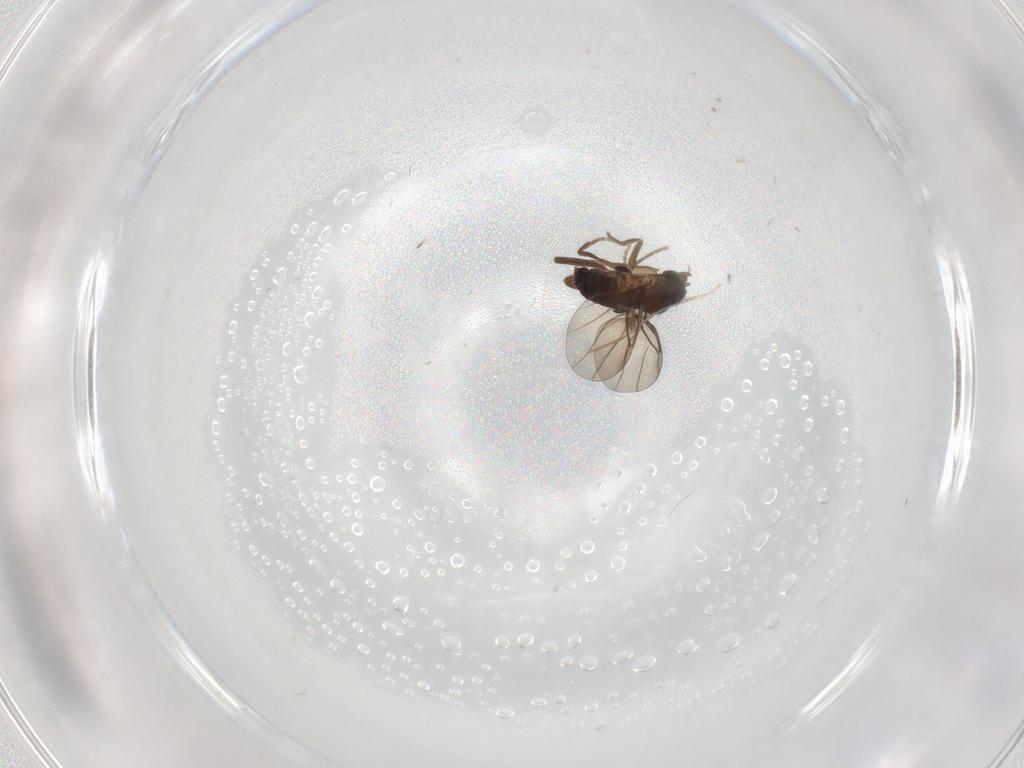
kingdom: Animalia
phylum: Arthropoda
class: Insecta
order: Diptera
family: Phoridae
